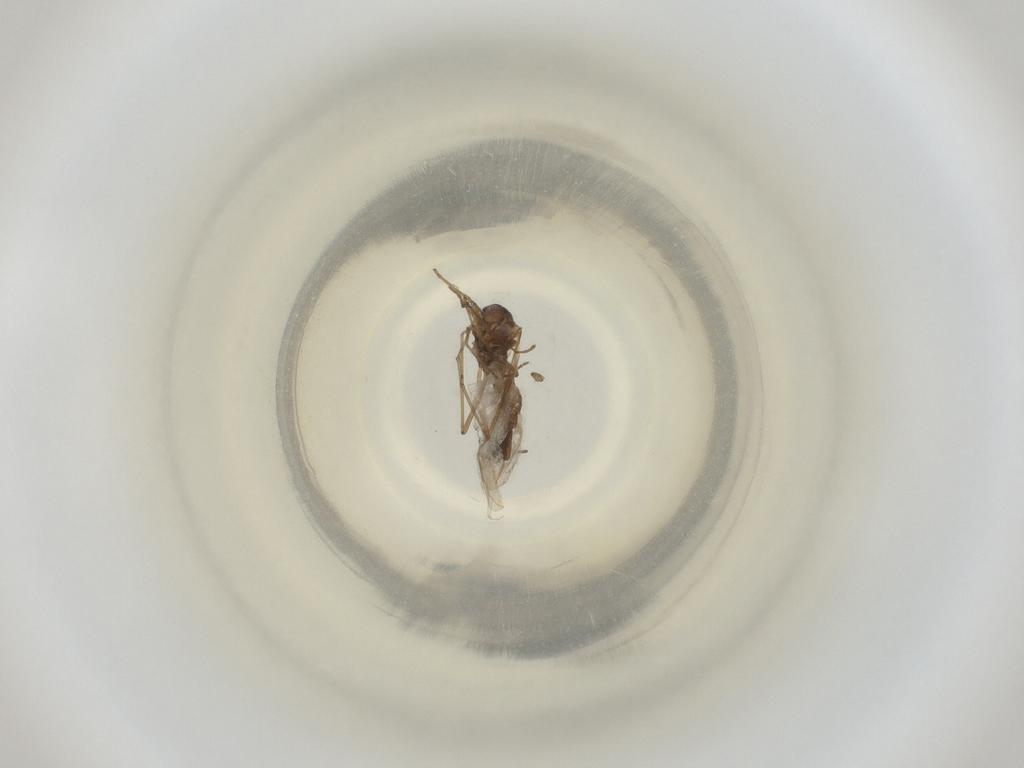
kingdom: Animalia
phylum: Arthropoda
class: Insecta
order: Diptera
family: Cecidomyiidae
